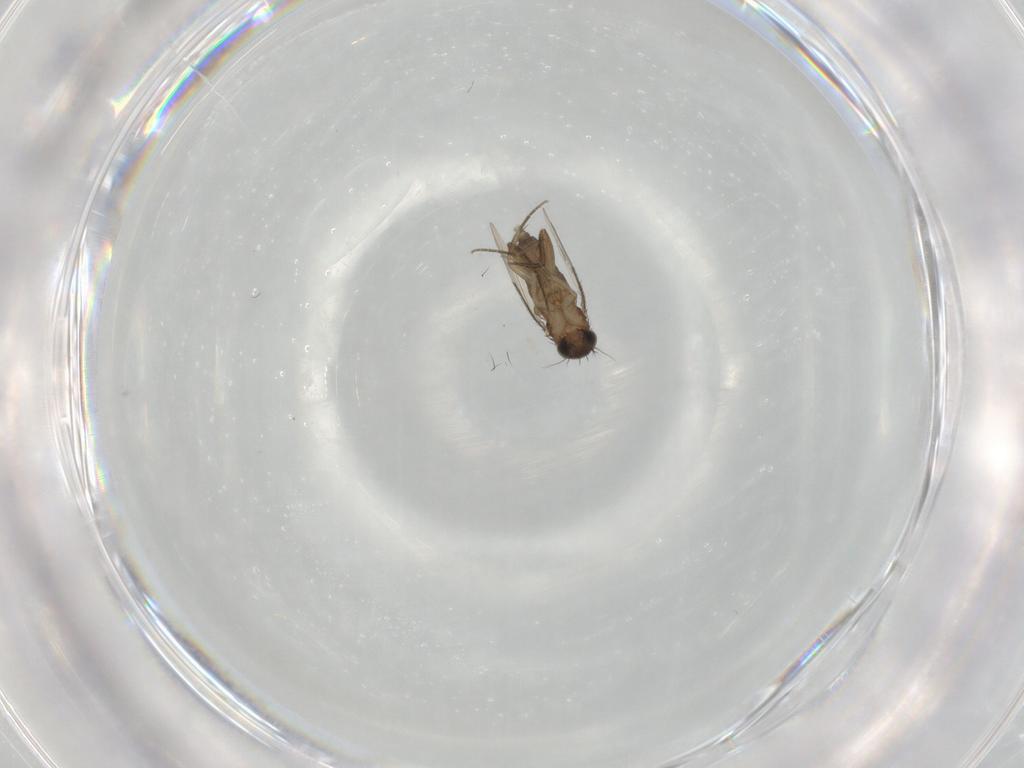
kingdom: Animalia
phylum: Arthropoda
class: Insecta
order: Diptera
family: Phoridae
